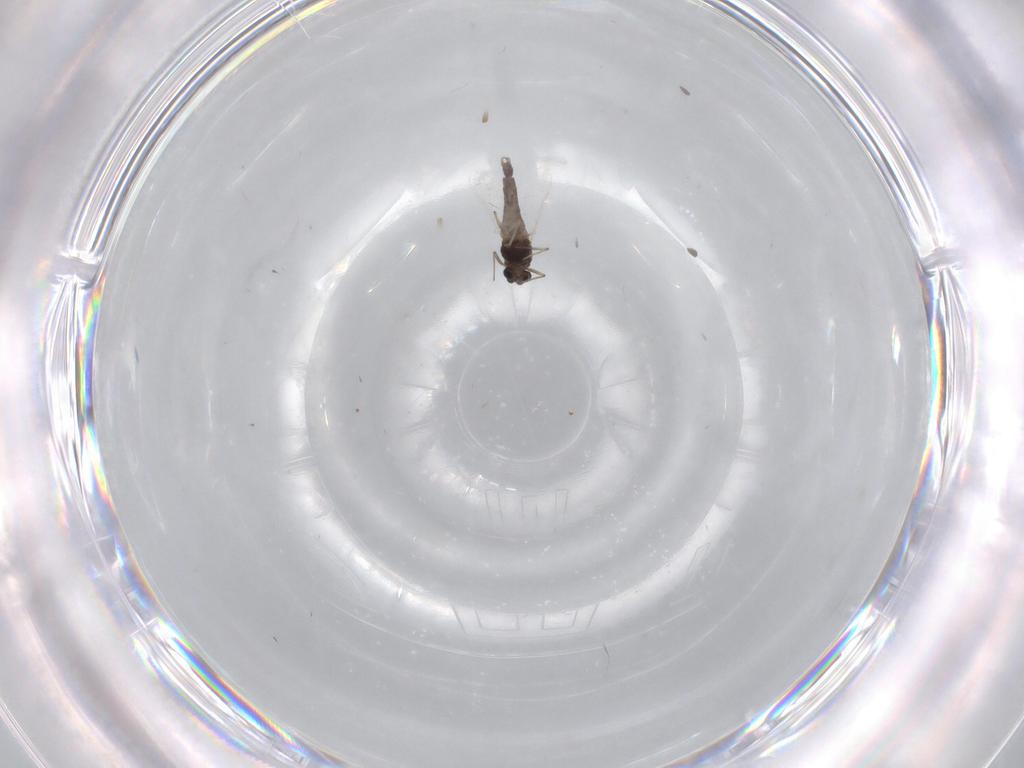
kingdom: Animalia
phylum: Arthropoda
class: Insecta
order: Diptera
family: Chironomidae
